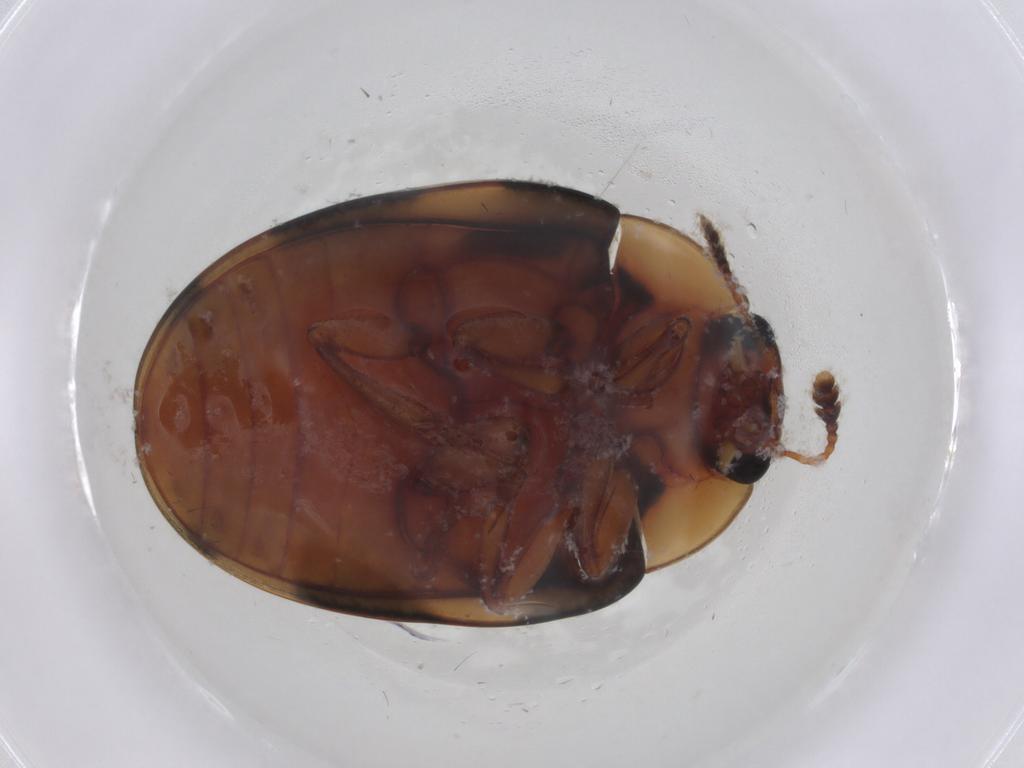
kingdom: Animalia
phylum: Arthropoda
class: Insecta
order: Coleoptera
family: Erotylidae
